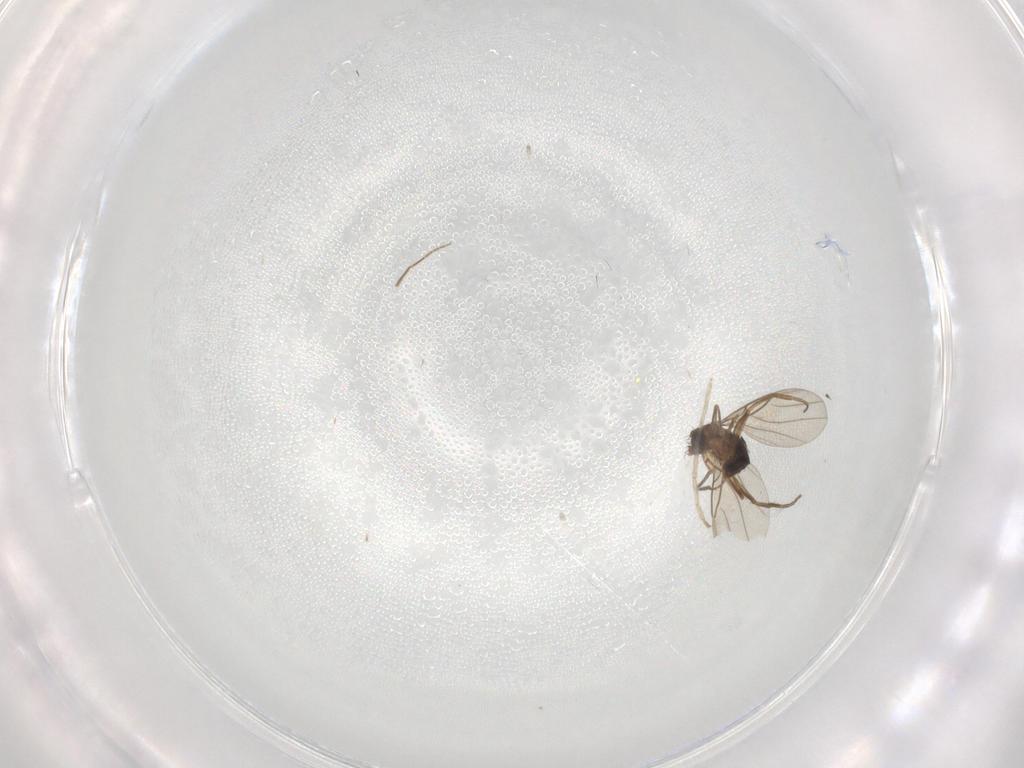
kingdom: Animalia
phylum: Arthropoda
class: Insecta
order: Diptera
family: Chironomidae
